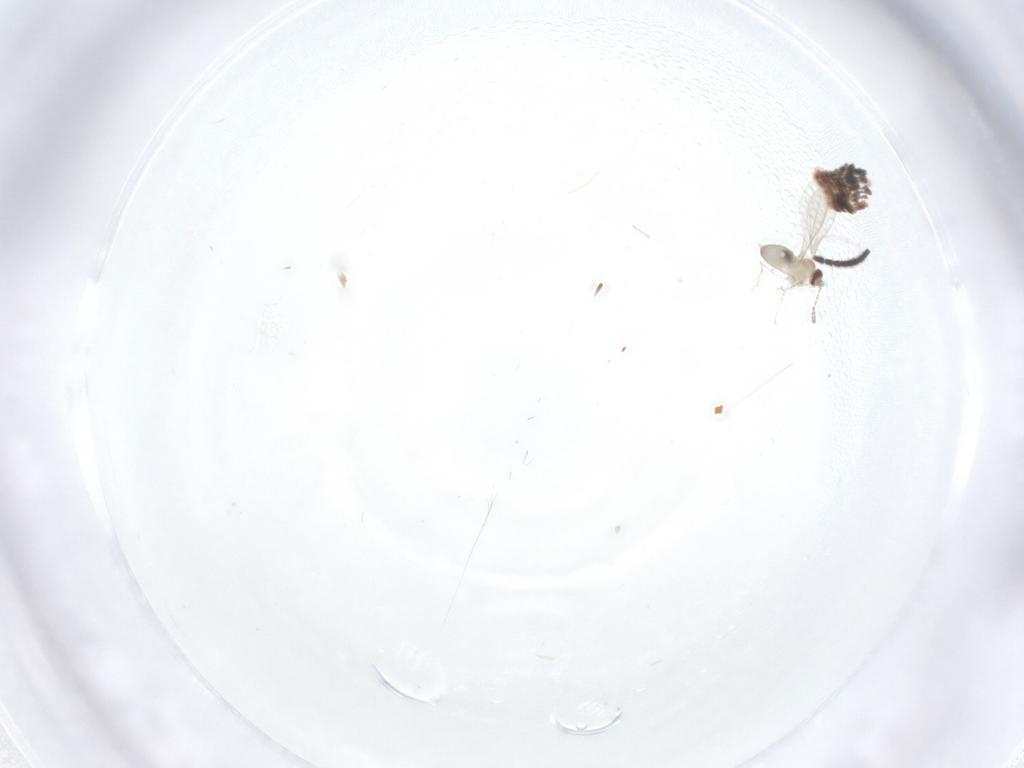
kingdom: Animalia
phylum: Arthropoda
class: Insecta
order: Diptera
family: Sciaridae
